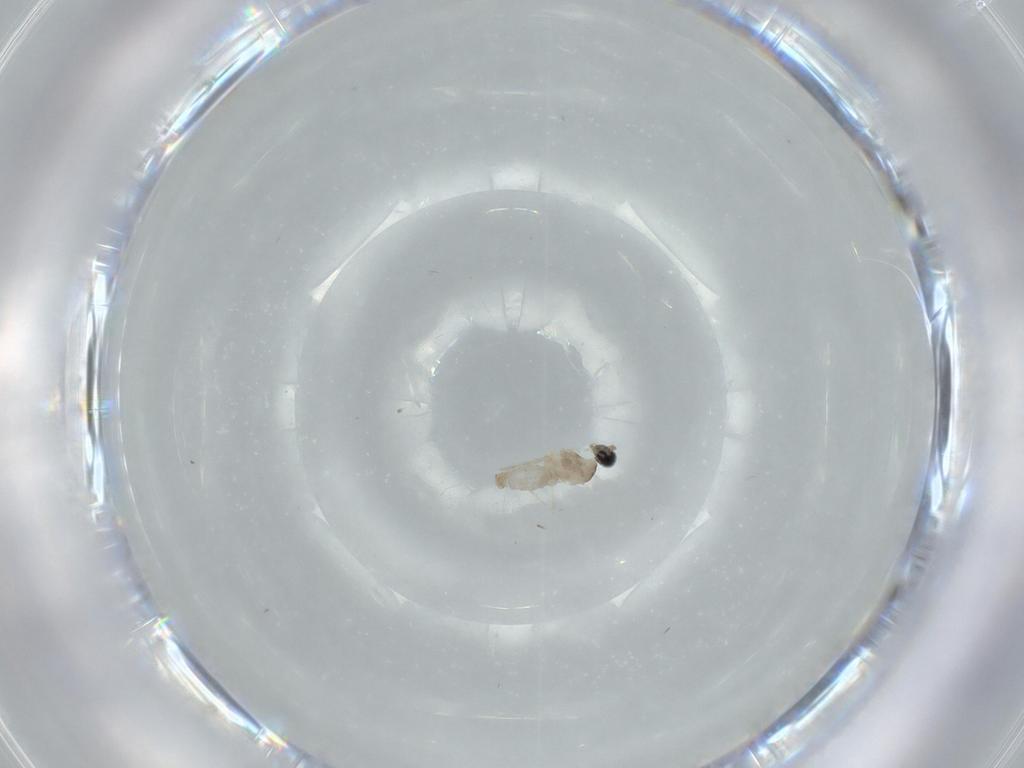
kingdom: Animalia
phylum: Arthropoda
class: Insecta
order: Diptera
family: Cecidomyiidae
